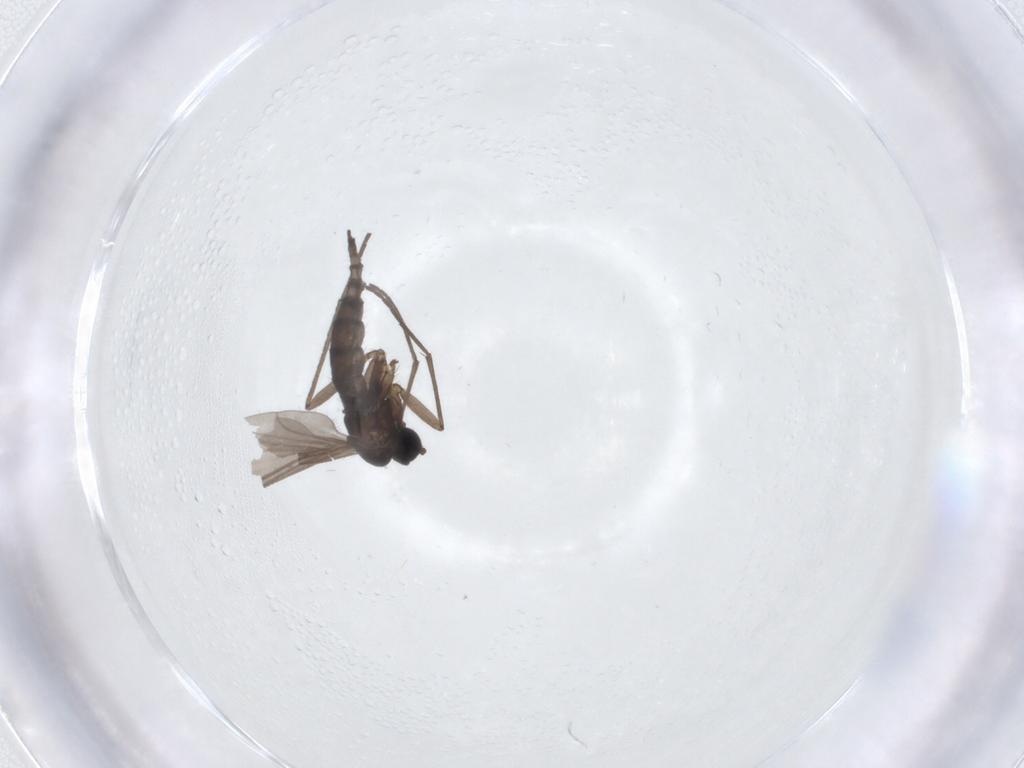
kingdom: Animalia
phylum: Arthropoda
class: Insecta
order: Diptera
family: Sciaridae
